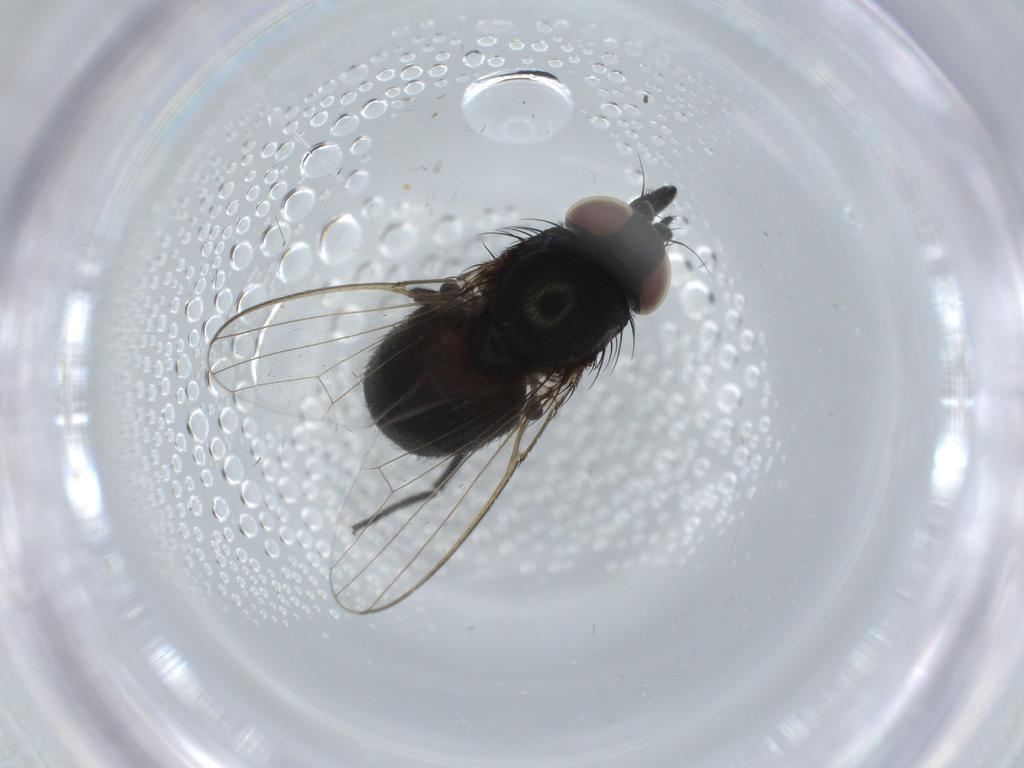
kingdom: Animalia
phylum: Arthropoda
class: Insecta
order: Diptera
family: Milichiidae
